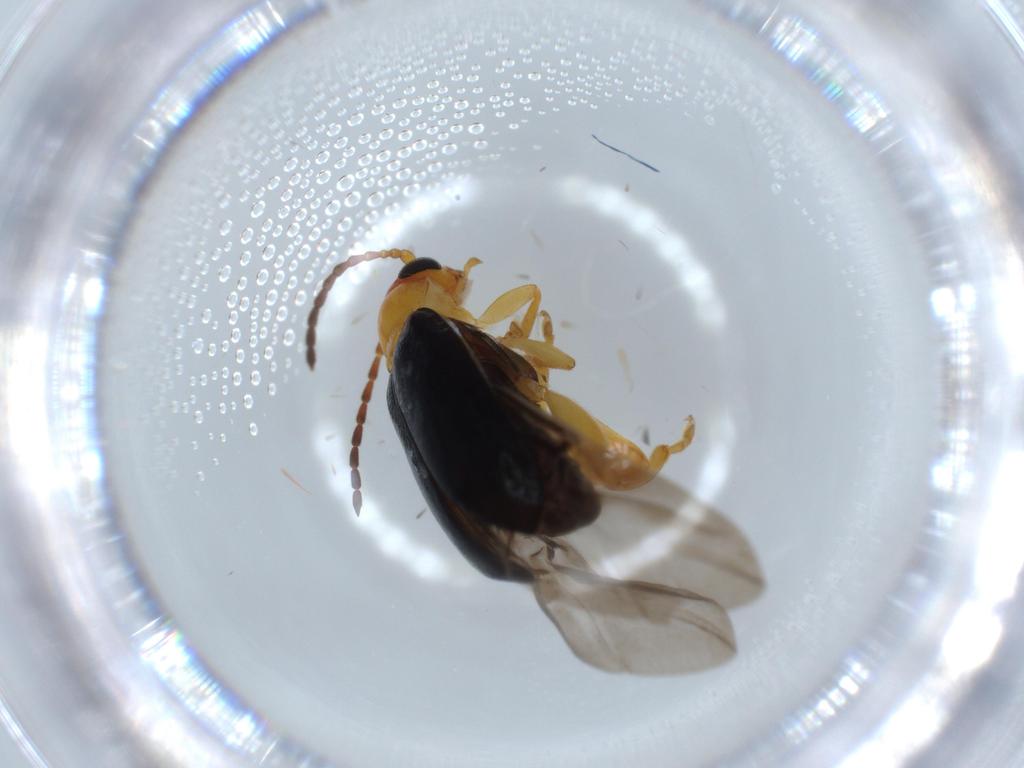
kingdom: Animalia
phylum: Arthropoda
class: Insecta
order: Coleoptera
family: Chrysomelidae
